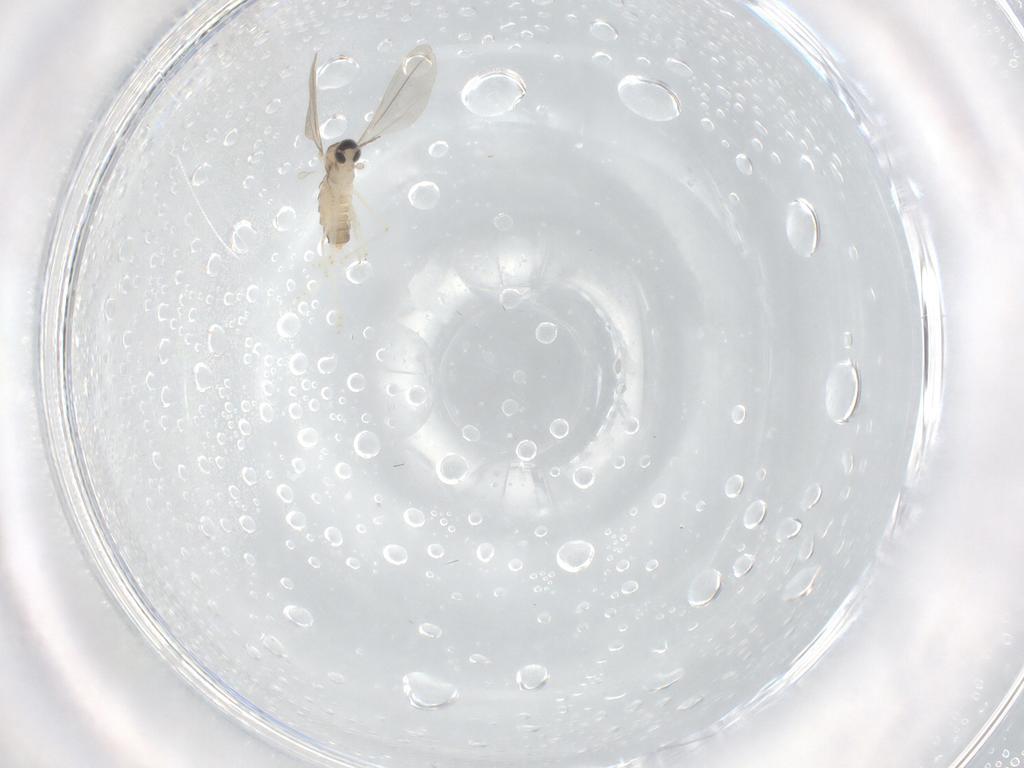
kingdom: Animalia
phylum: Arthropoda
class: Insecta
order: Diptera
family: Cecidomyiidae
